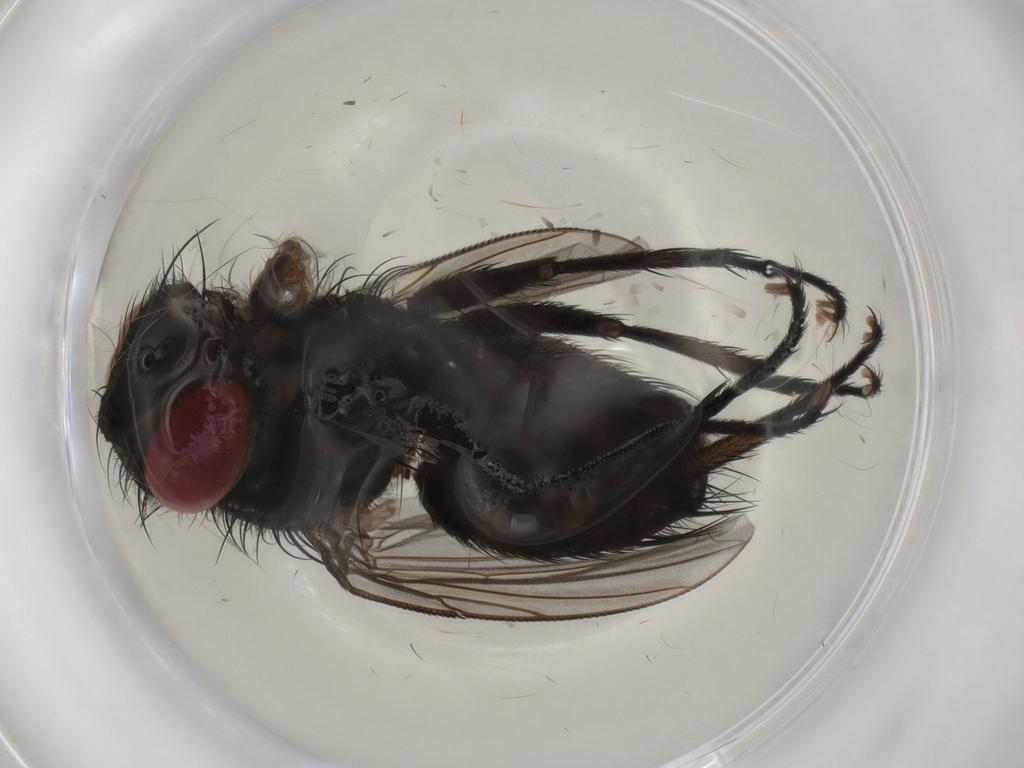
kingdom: Animalia
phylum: Arthropoda
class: Insecta
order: Diptera
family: Tachinidae
